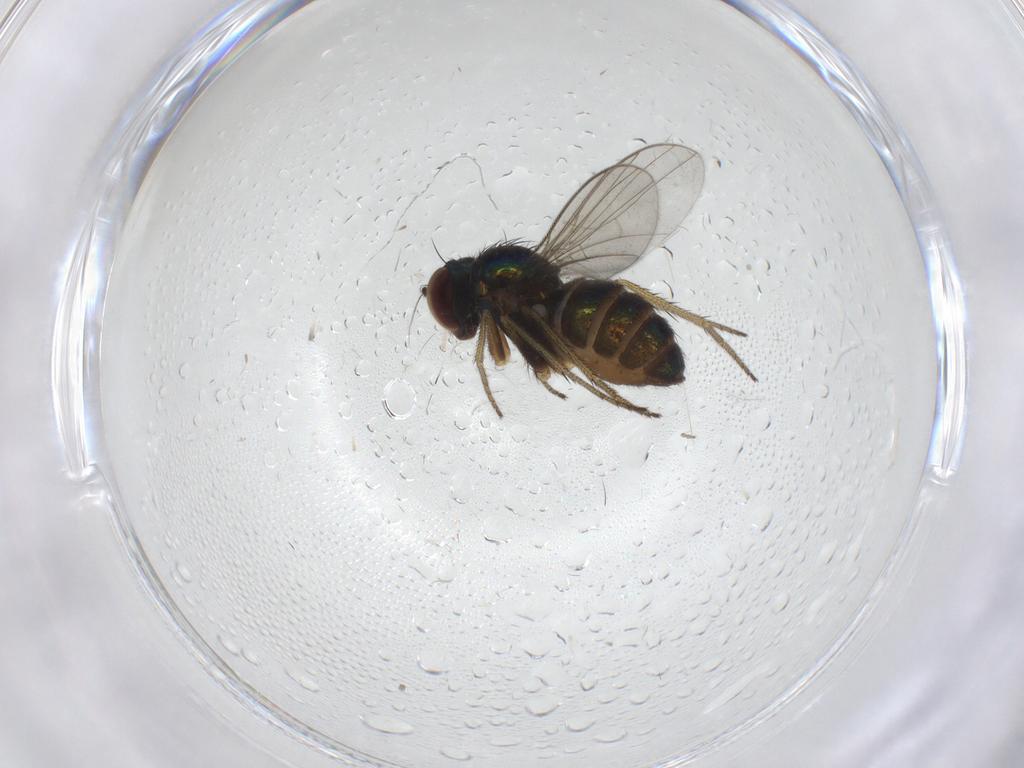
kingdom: Animalia
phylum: Arthropoda
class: Insecta
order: Diptera
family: Limoniidae
